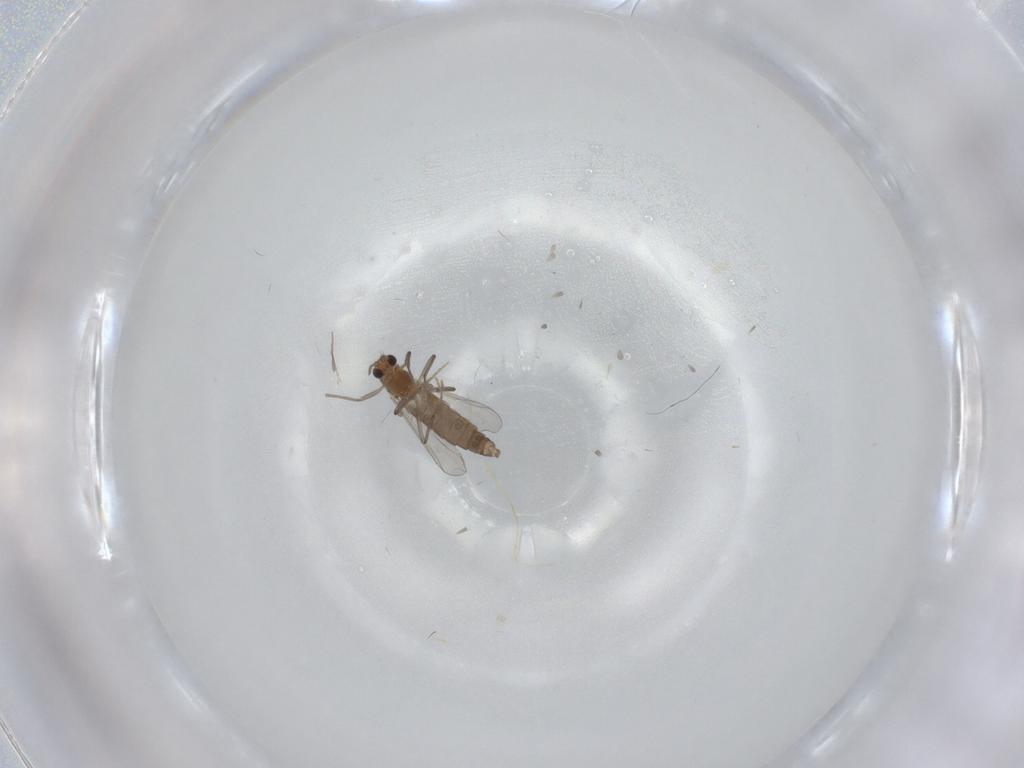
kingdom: Animalia
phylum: Arthropoda
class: Insecta
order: Diptera
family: Chironomidae
